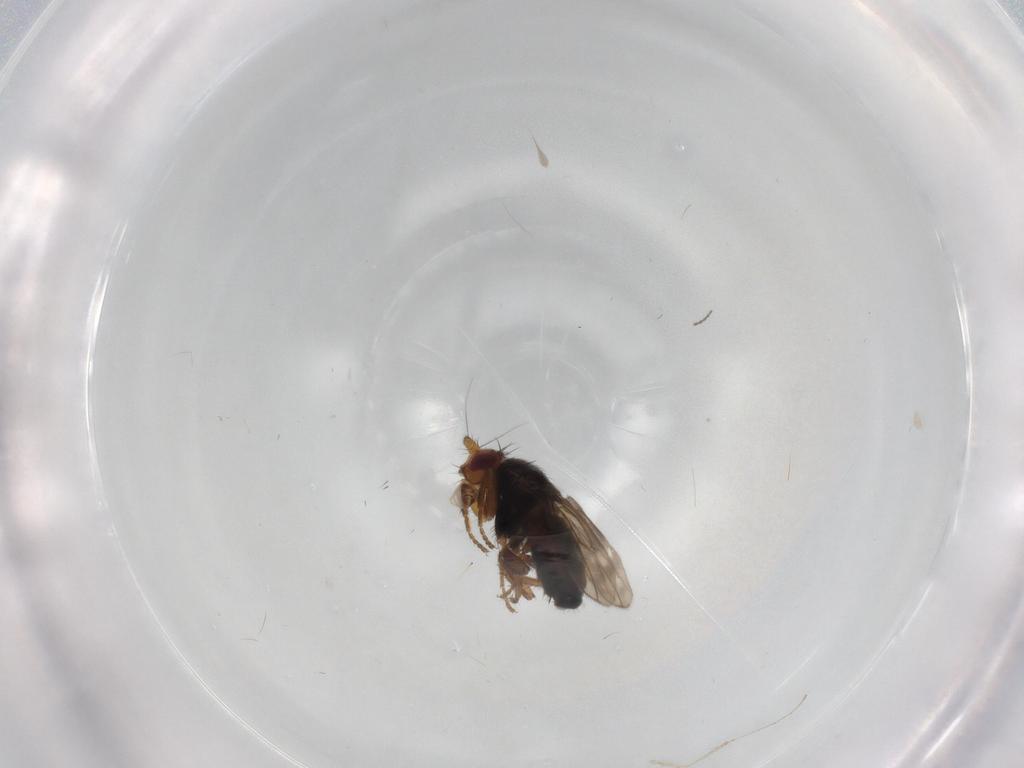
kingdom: Animalia
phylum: Arthropoda
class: Insecta
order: Diptera
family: Sphaeroceridae
